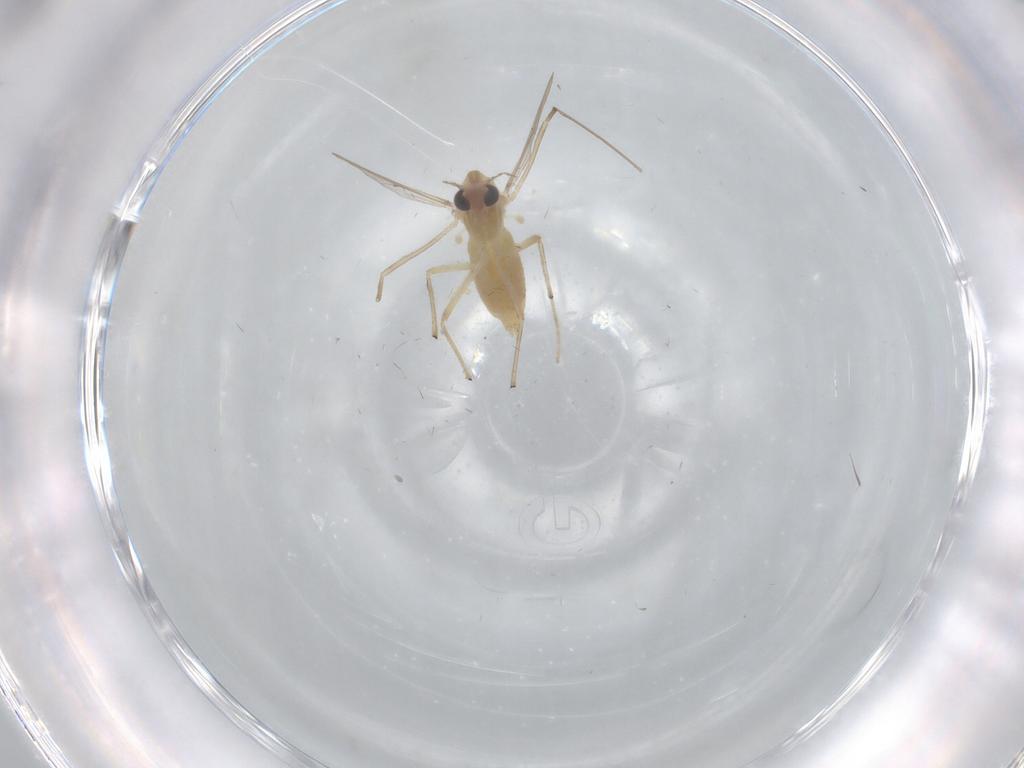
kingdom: Animalia
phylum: Arthropoda
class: Insecta
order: Diptera
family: Chironomidae
